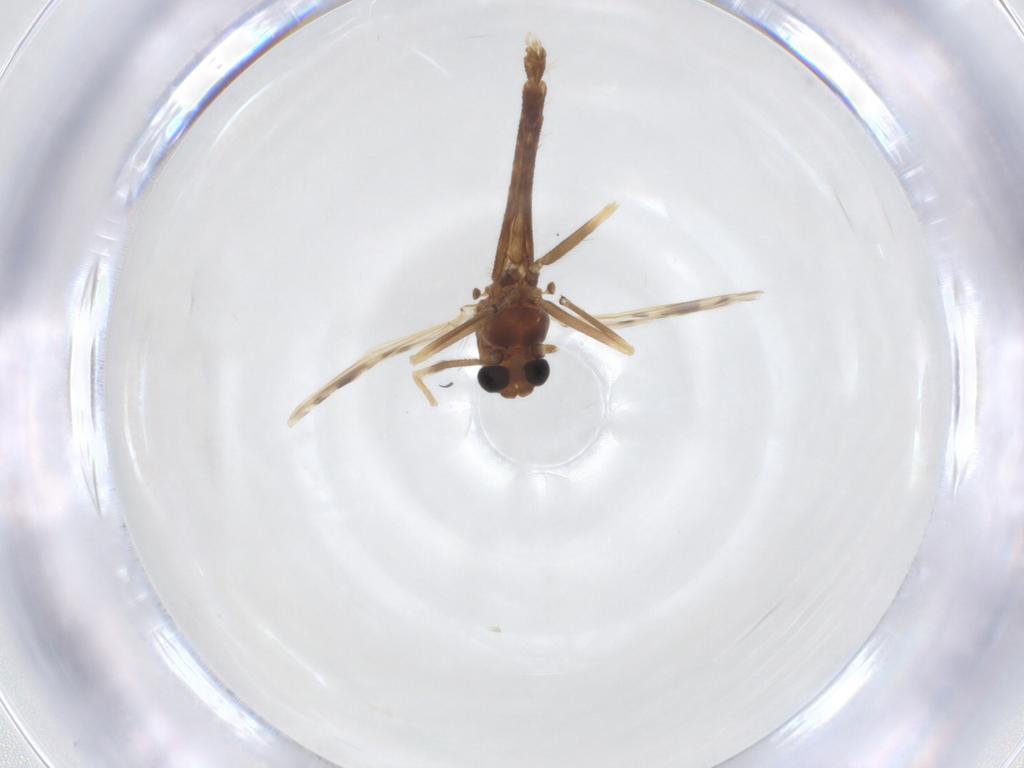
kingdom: Animalia
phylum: Arthropoda
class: Insecta
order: Diptera
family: Chironomidae
